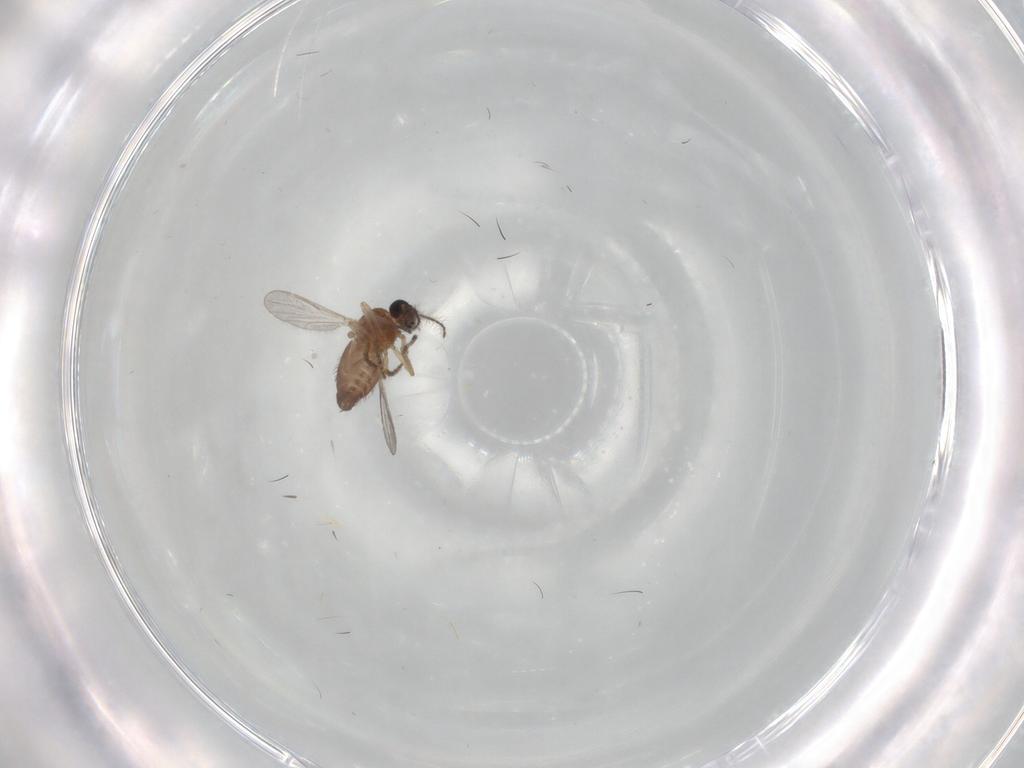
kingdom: Animalia
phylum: Arthropoda
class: Insecta
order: Diptera
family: Ceratopogonidae
